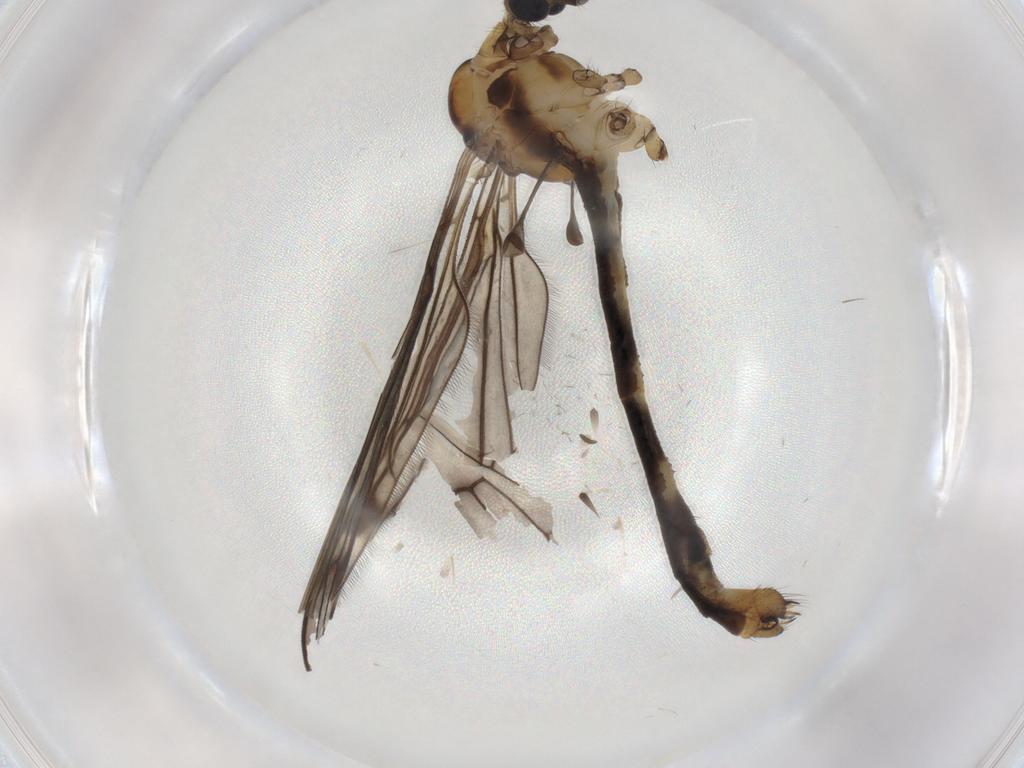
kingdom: Animalia
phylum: Arthropoda
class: Insecta
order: Diptera
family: Limoniidae
